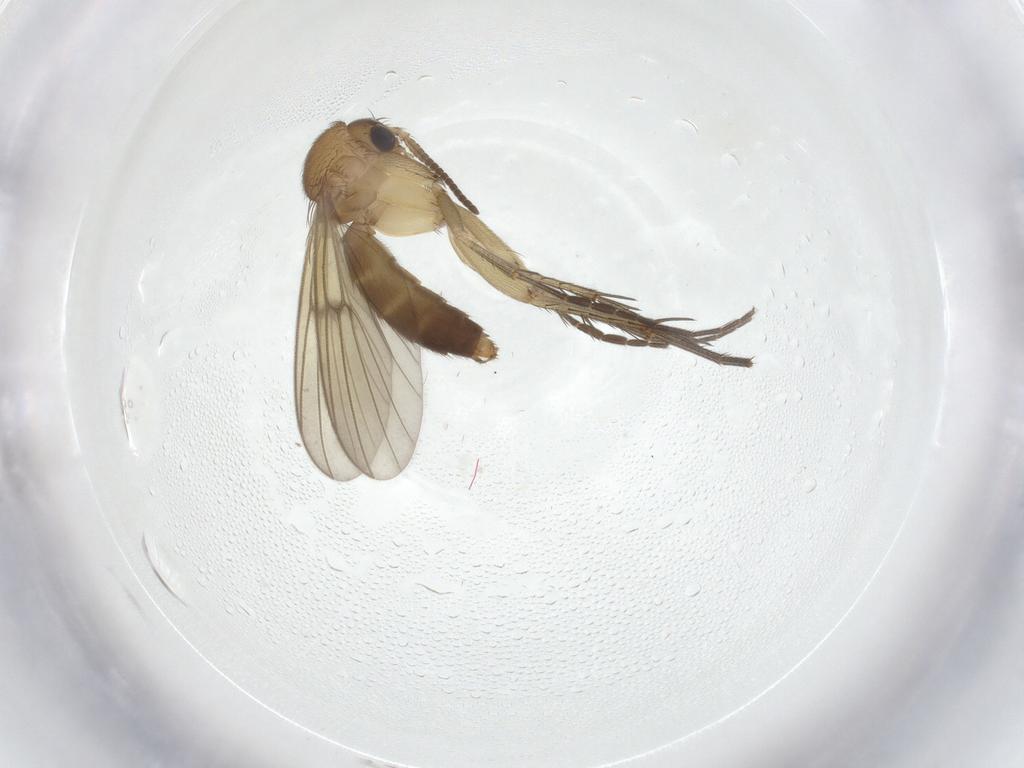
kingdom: Animalia
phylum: Arthropoda
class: Insecta
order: Diptera
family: Mycetophilidae
